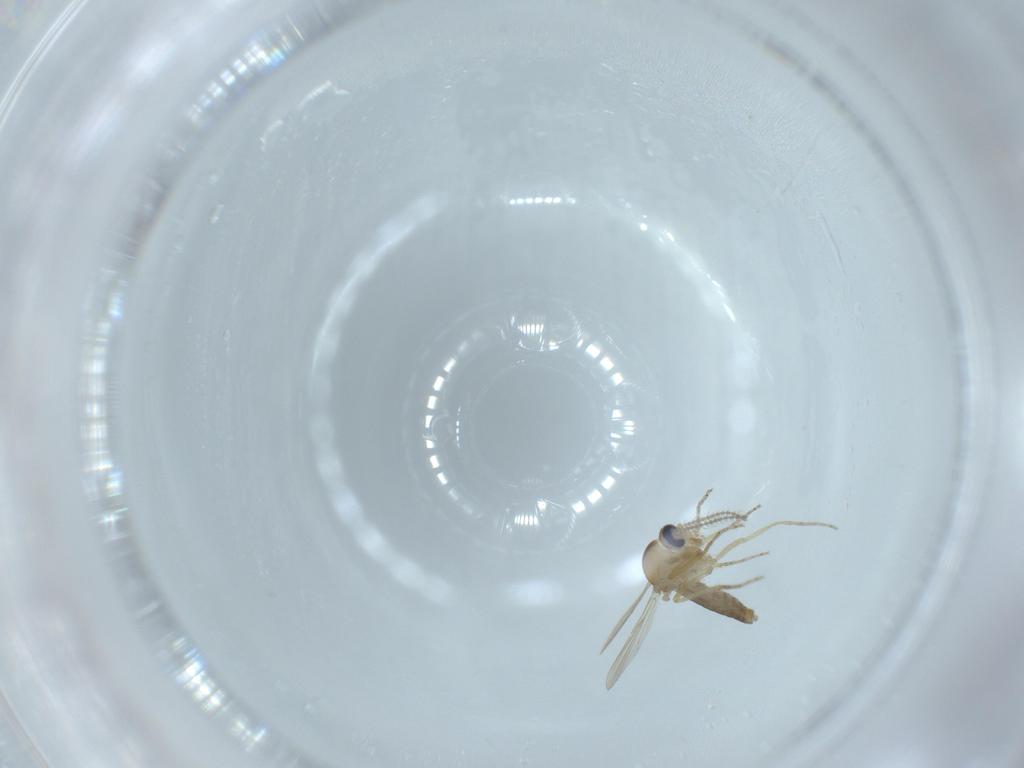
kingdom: Animalia
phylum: Arthropoda
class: Insecta
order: Diptera
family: Ceratopogonidae
